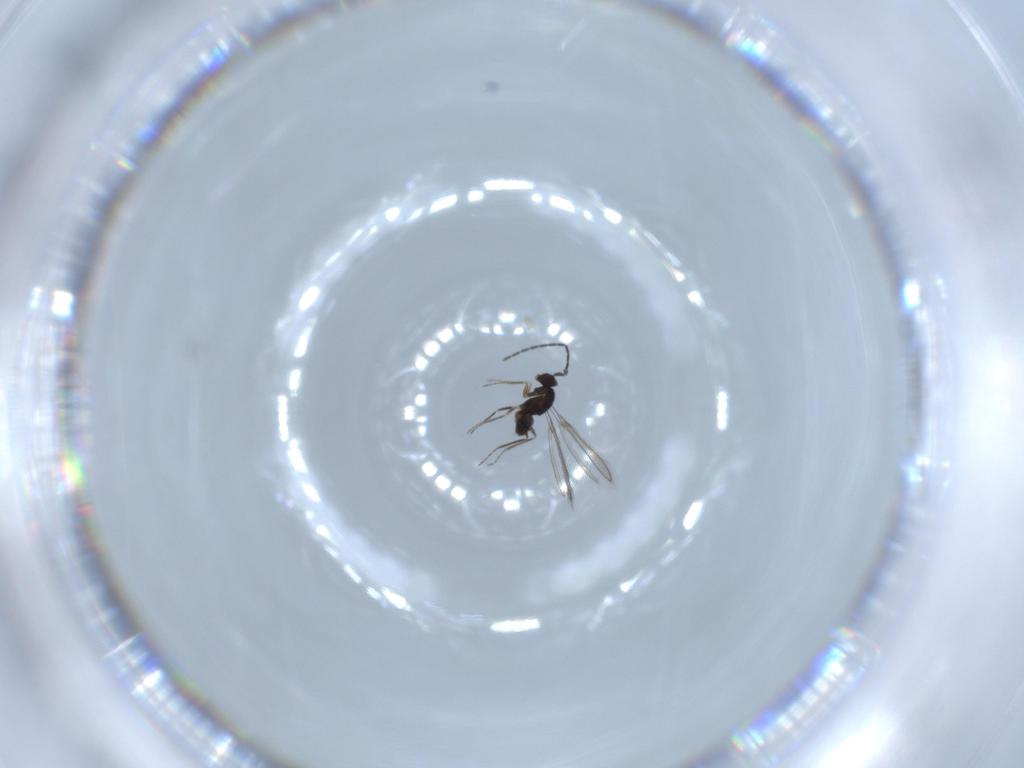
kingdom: Animalia
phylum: Arthropoda
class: Insecta
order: Hymenoptera
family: Mymaridae
